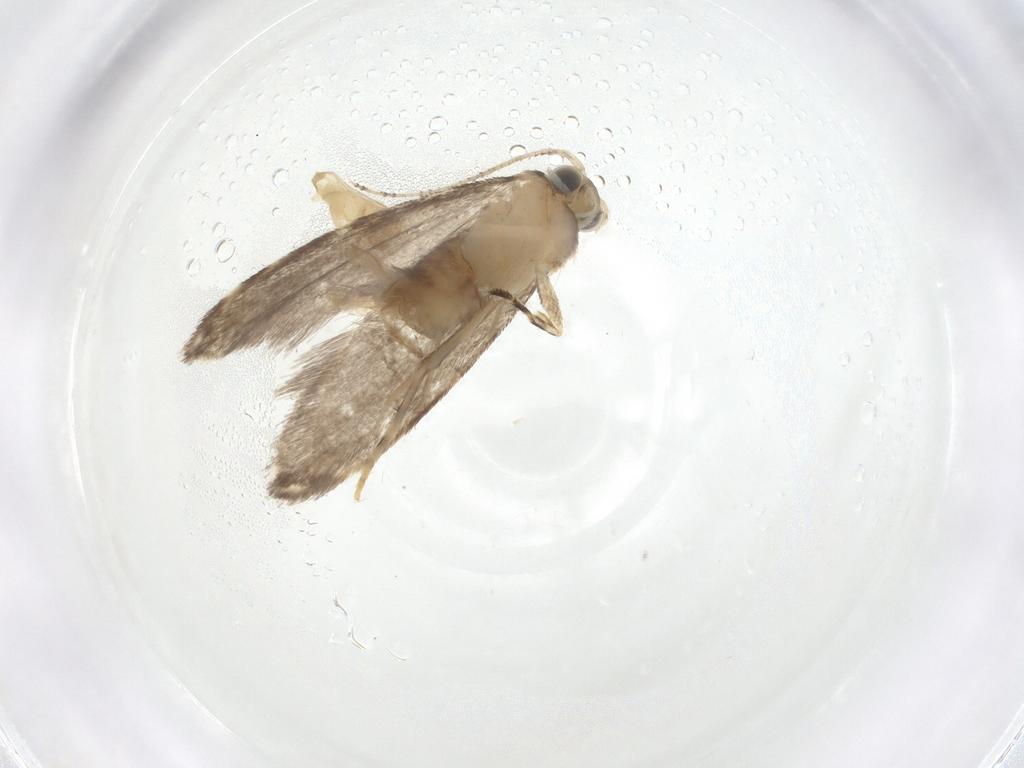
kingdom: Animalia
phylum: Arthropoda
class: Insecta
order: Lepidoptera
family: Tineidae
